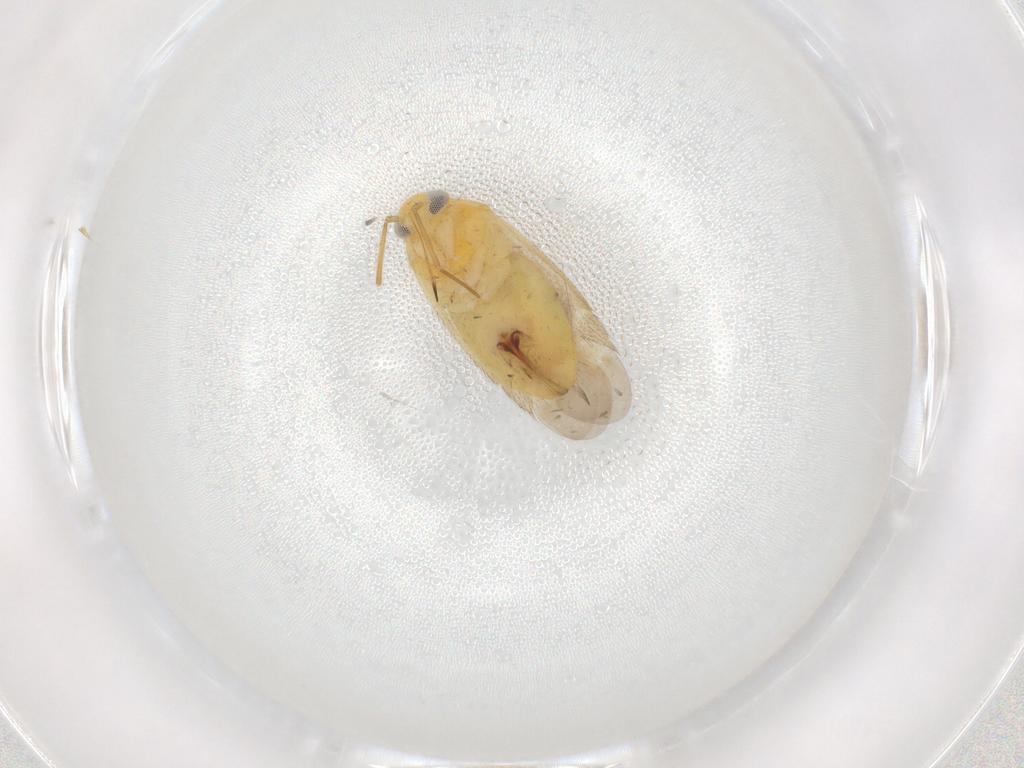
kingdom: Animalia
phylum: Arthropoda
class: Insecta
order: Hemiptera
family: Miridae
